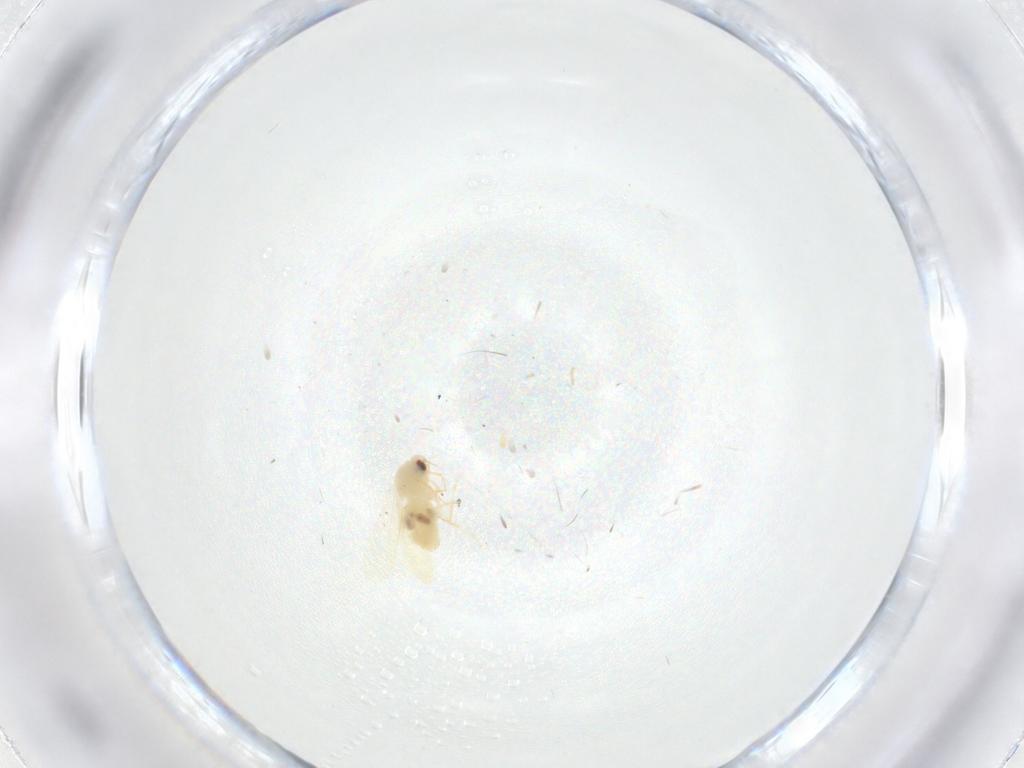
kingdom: Animalia
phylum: Arthropoda
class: Insecta
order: Hemiptera
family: Aleyrodidae
